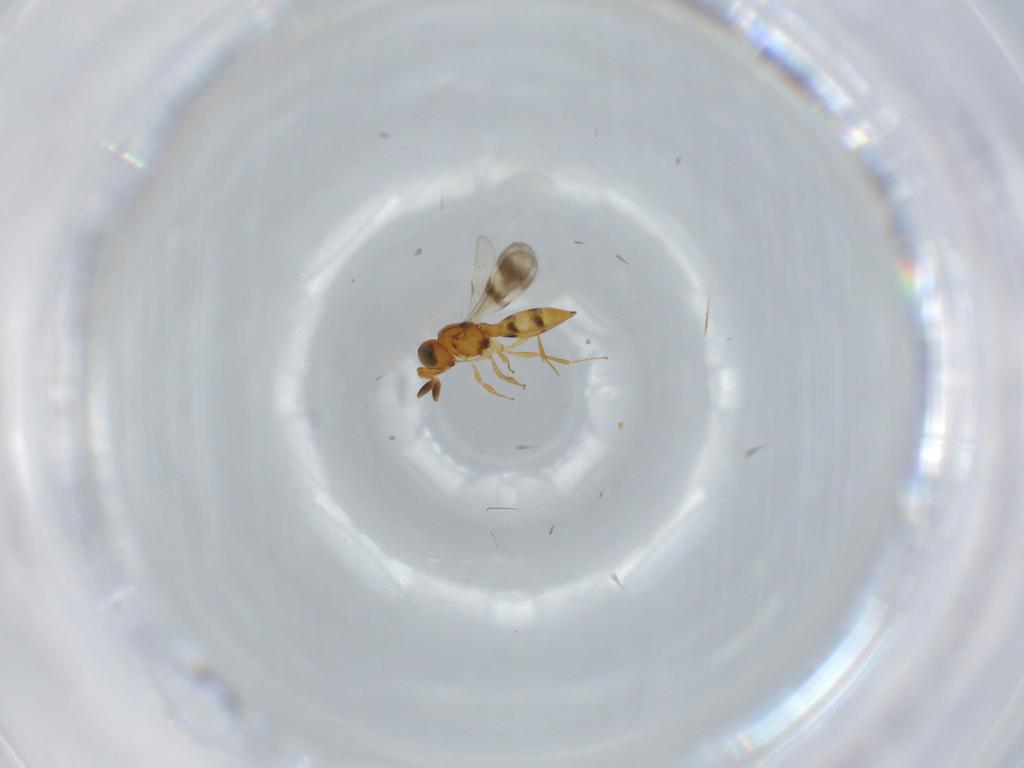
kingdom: Animalia
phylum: Arthropoda
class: Insecta
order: Hymenoptera
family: Scelionidae
